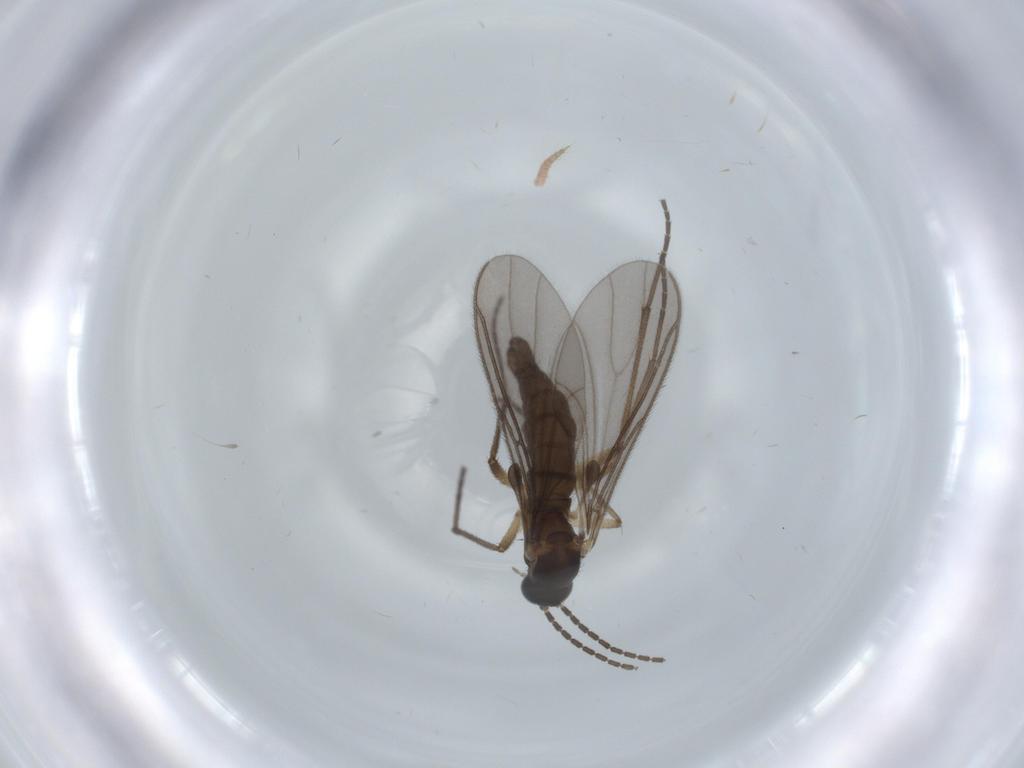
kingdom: Animalia
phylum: Arthropoda
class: Insecta
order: Diptera
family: Sciaridae
